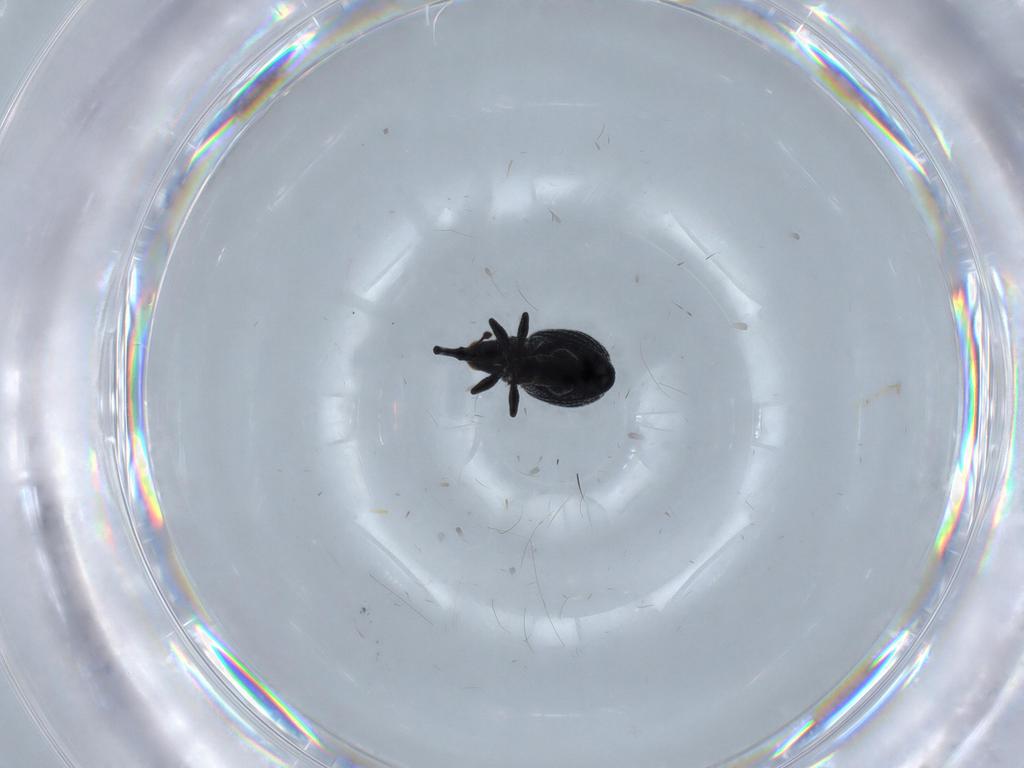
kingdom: Animalia
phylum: Arthropoda
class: Insecta
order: Coleoptera
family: Brentidae
